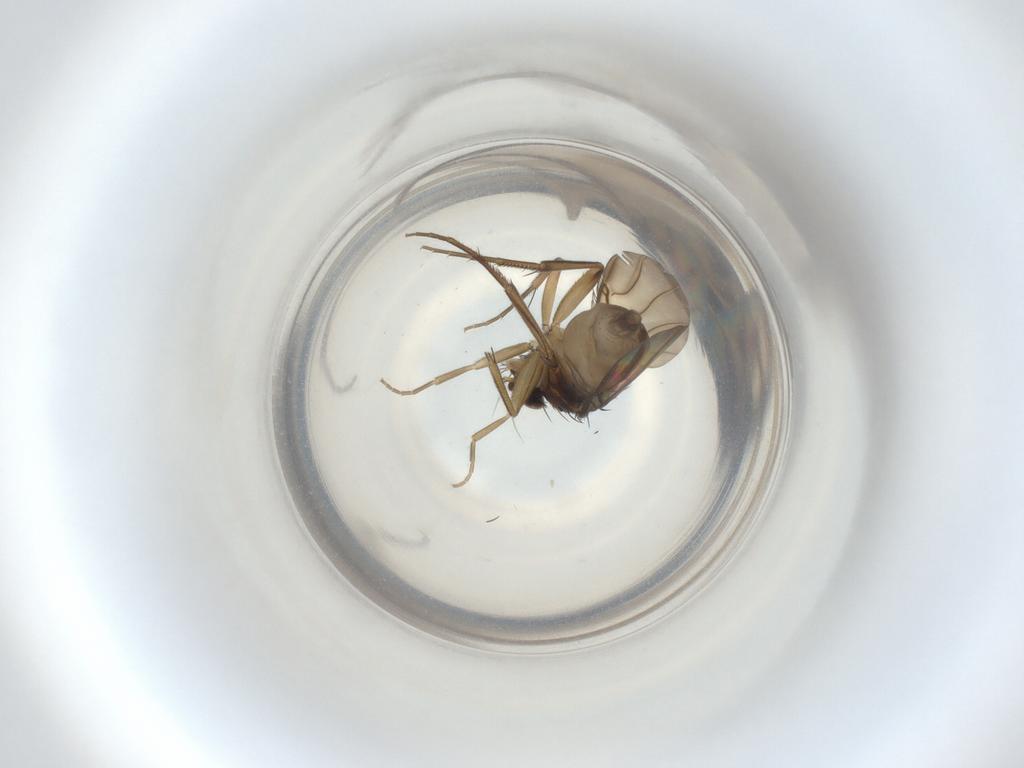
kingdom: Animalia
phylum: Arthropoda
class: Insecta
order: Diptera
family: Phoridae
